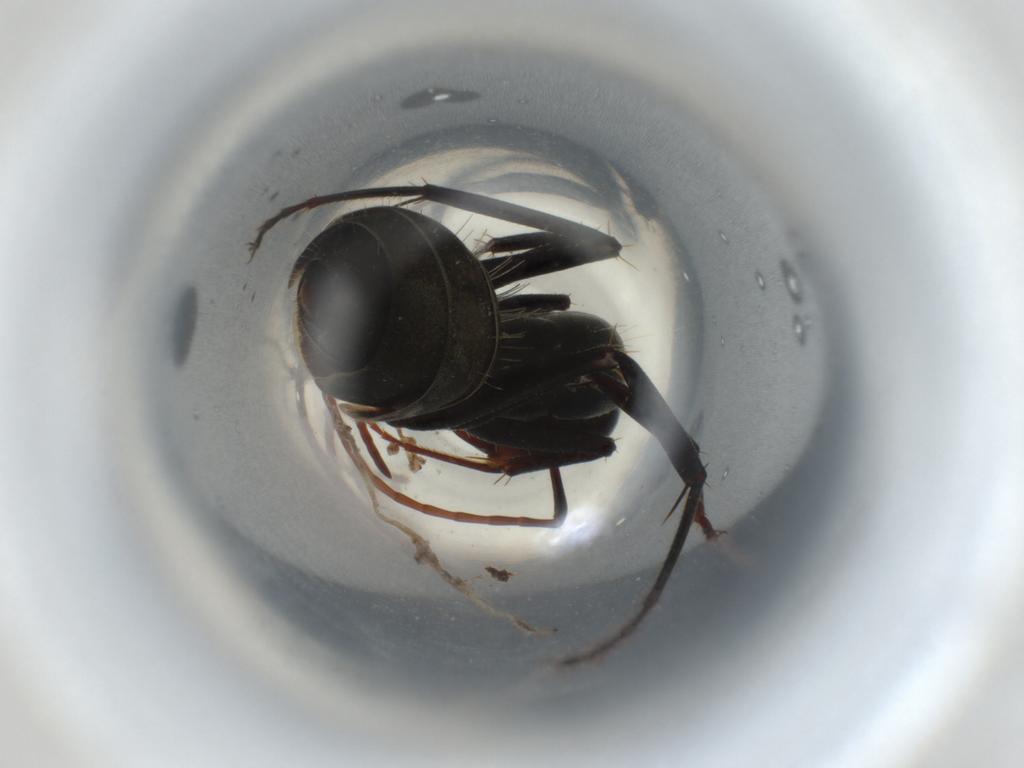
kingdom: Animalia
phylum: Arthropoda
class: Insecta
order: Hymenoptera
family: Formicidae
